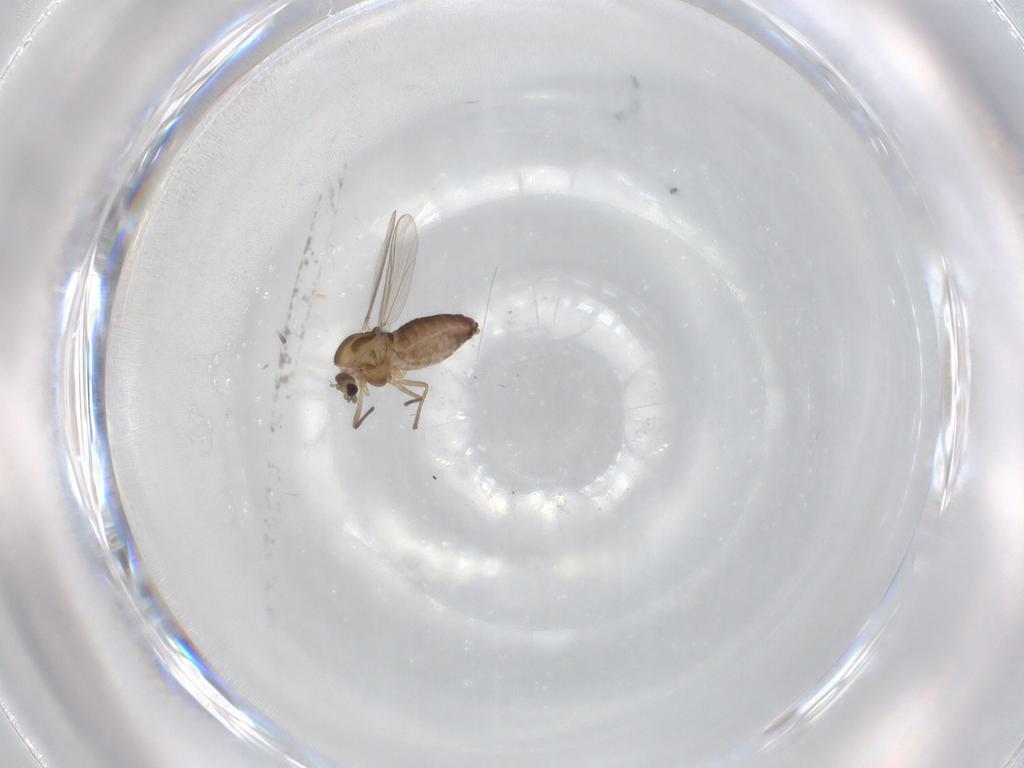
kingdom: Animalia
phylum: Arthropoda
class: Insecta
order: Diptera
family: Chironomidae
